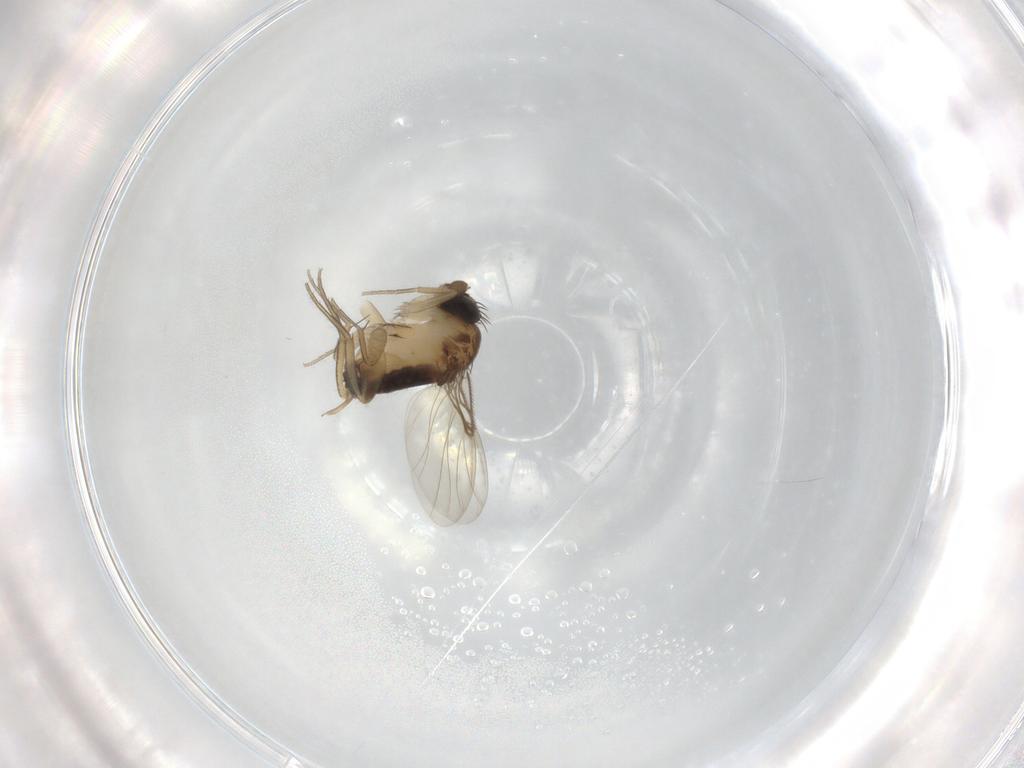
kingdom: Animalia
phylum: Arthropoda
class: Insecta
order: Diptera
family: Phoridae
